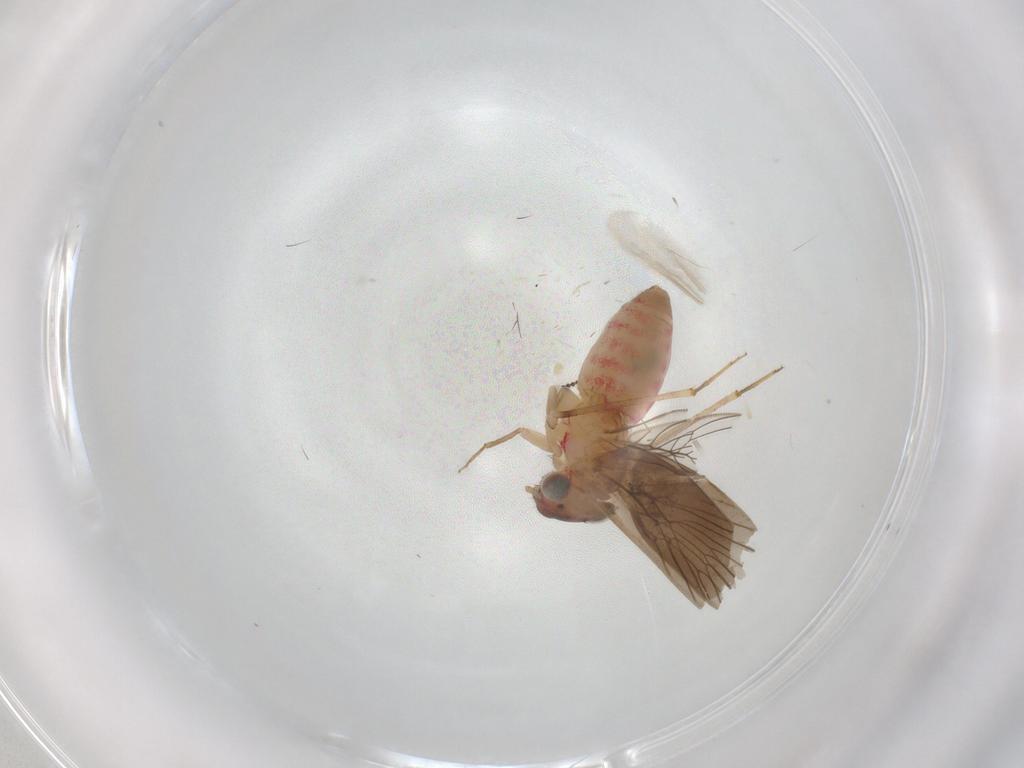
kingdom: Animalia
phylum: Arthropoda
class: Insecta
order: Psocodea
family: Lepidopsocidae
